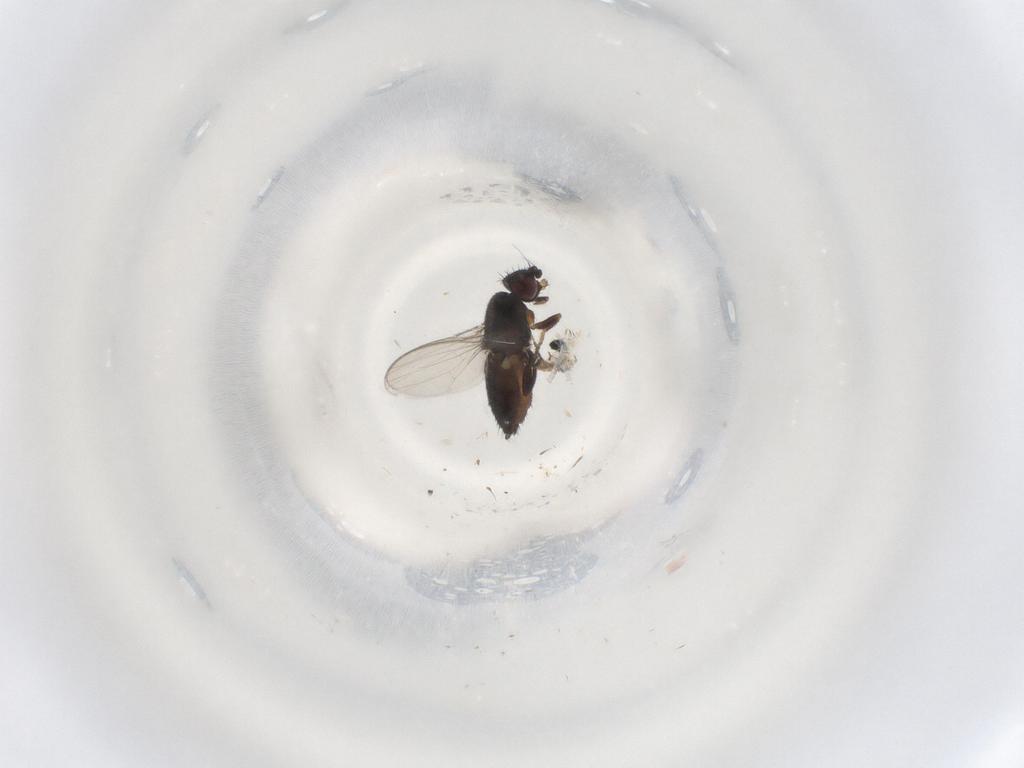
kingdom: Animalia
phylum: Arthropoda
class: Insecta
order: Diptera
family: Milichiidae
